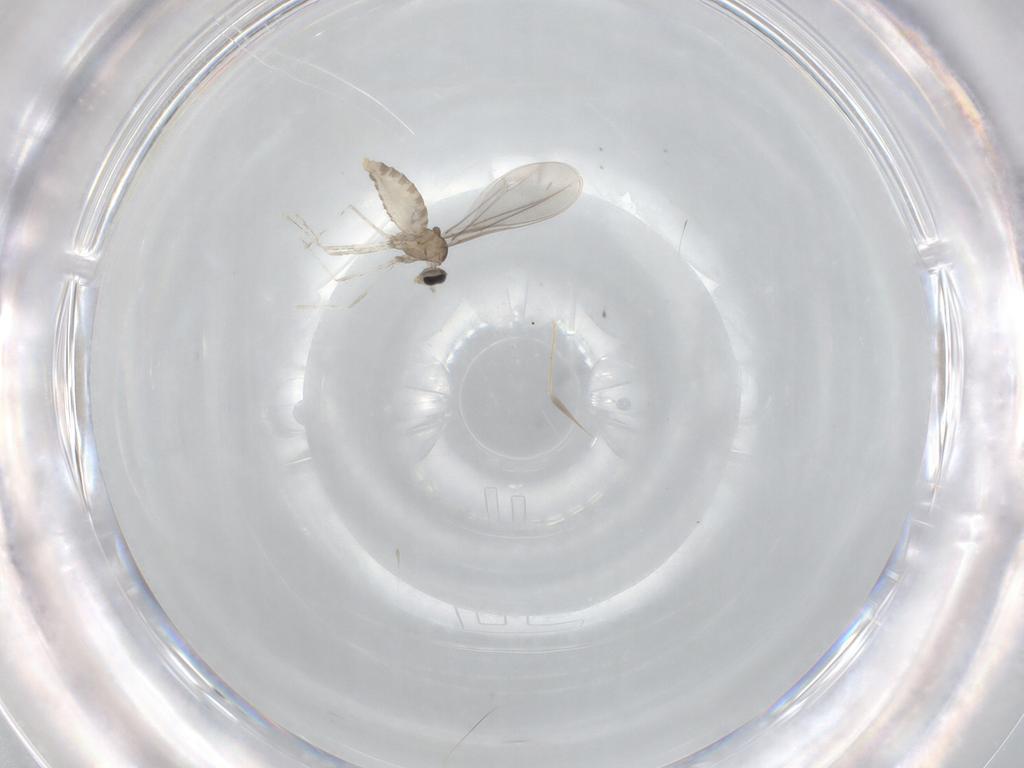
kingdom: Animalia
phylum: Arthropoda
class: Insecta
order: Diptera
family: Cecidomyiidae
